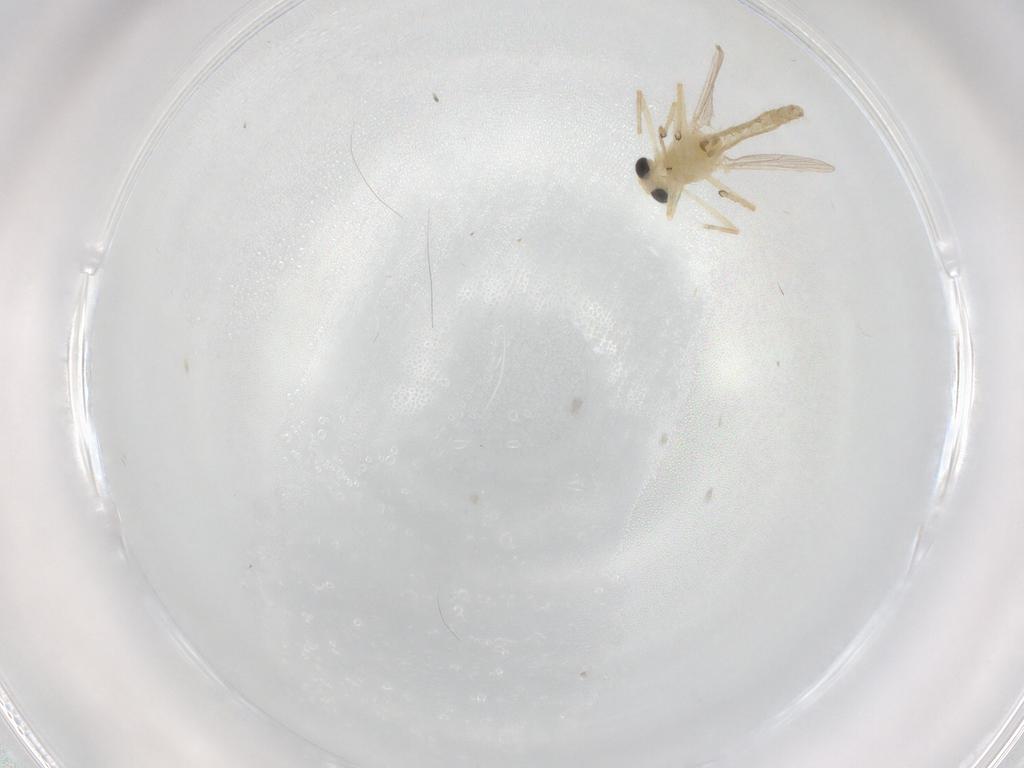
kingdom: Animalia
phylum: Arthropoda
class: Insecta
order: Diptera
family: Chironomidae
